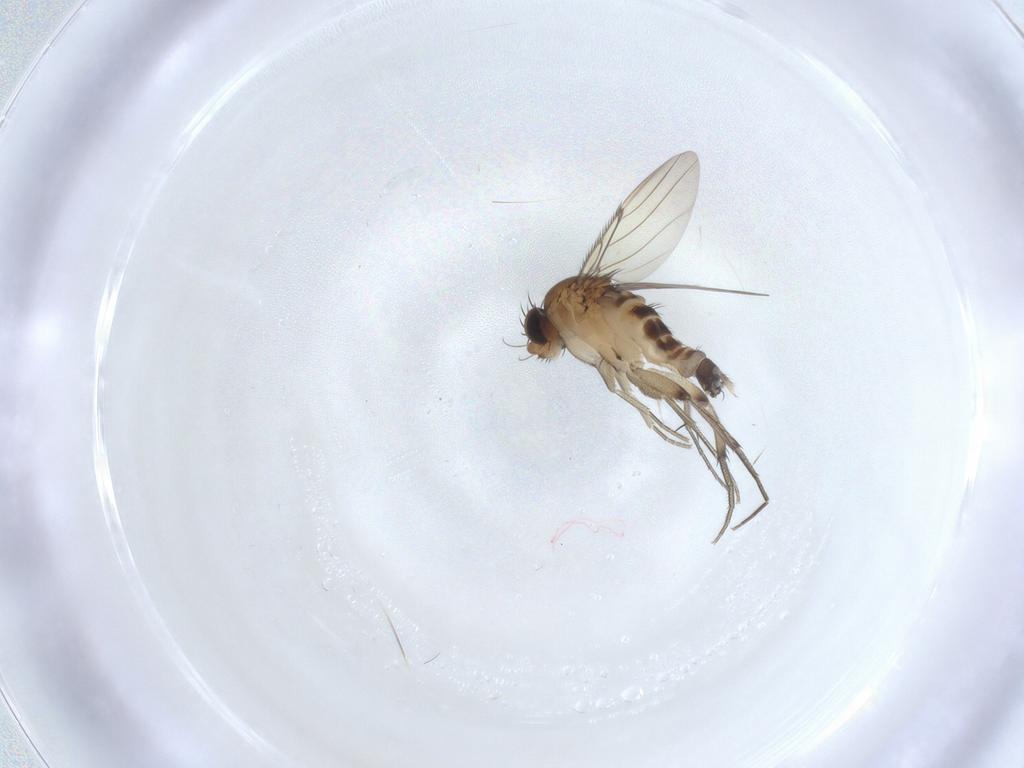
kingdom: Animalia
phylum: Arthropoda
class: Insecta
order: Diptera
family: Phoridae
